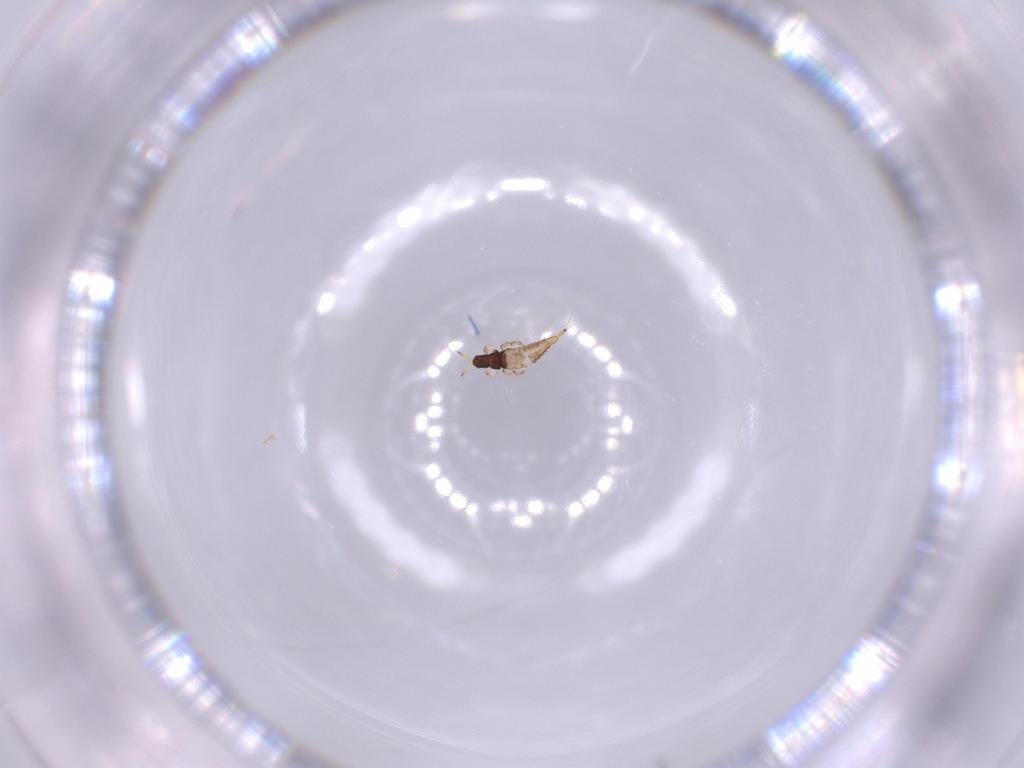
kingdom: Animalia
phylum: Arthropoda
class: Insecta
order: Thysanoptera
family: Phlaeothripidae
